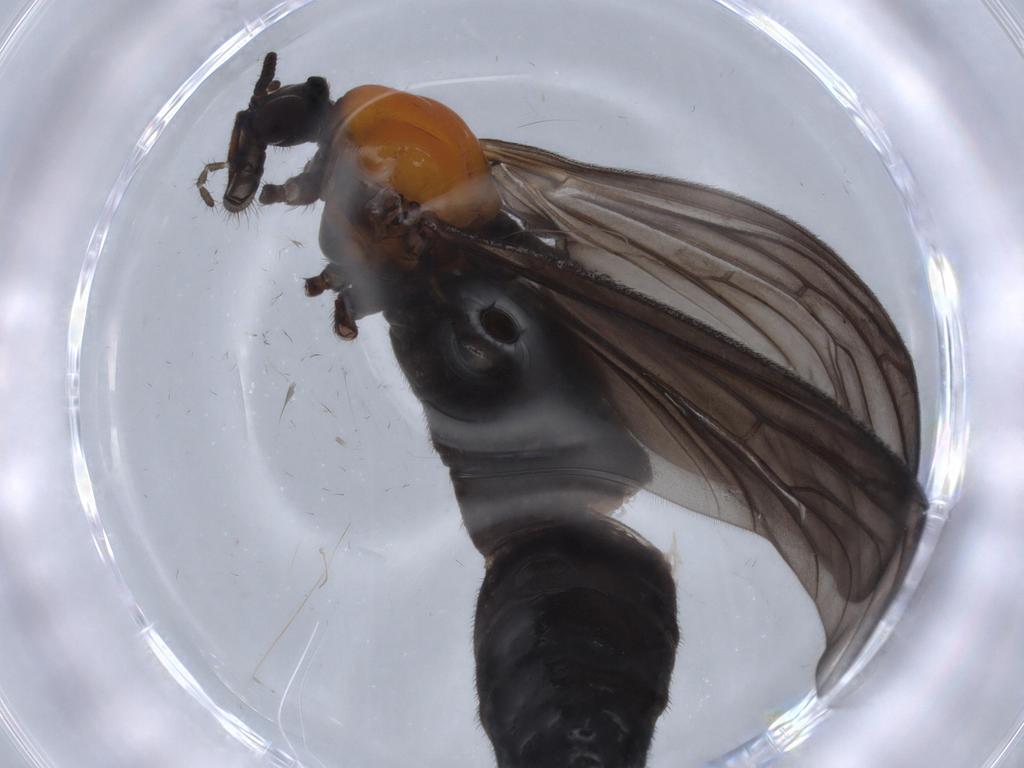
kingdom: Animalia
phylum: Arthropoda
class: Insecta
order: Diptera
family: Bibionidae
